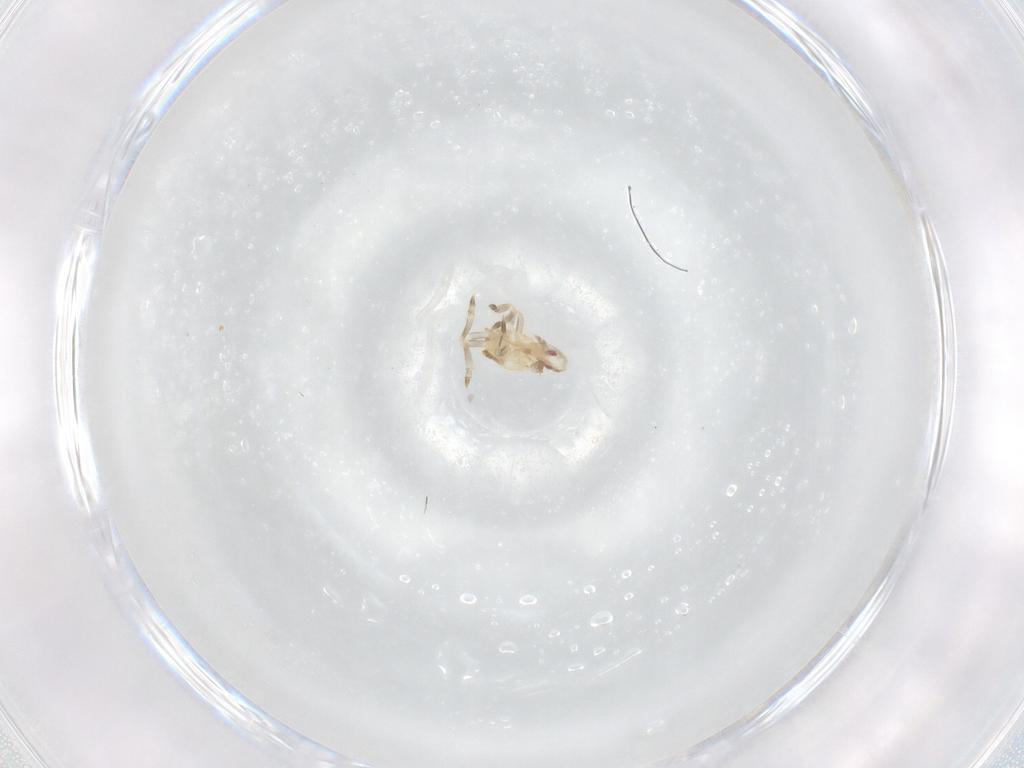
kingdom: Animalia
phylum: Arthropoda
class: Insecta
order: Hemiptera
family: Flatidae
